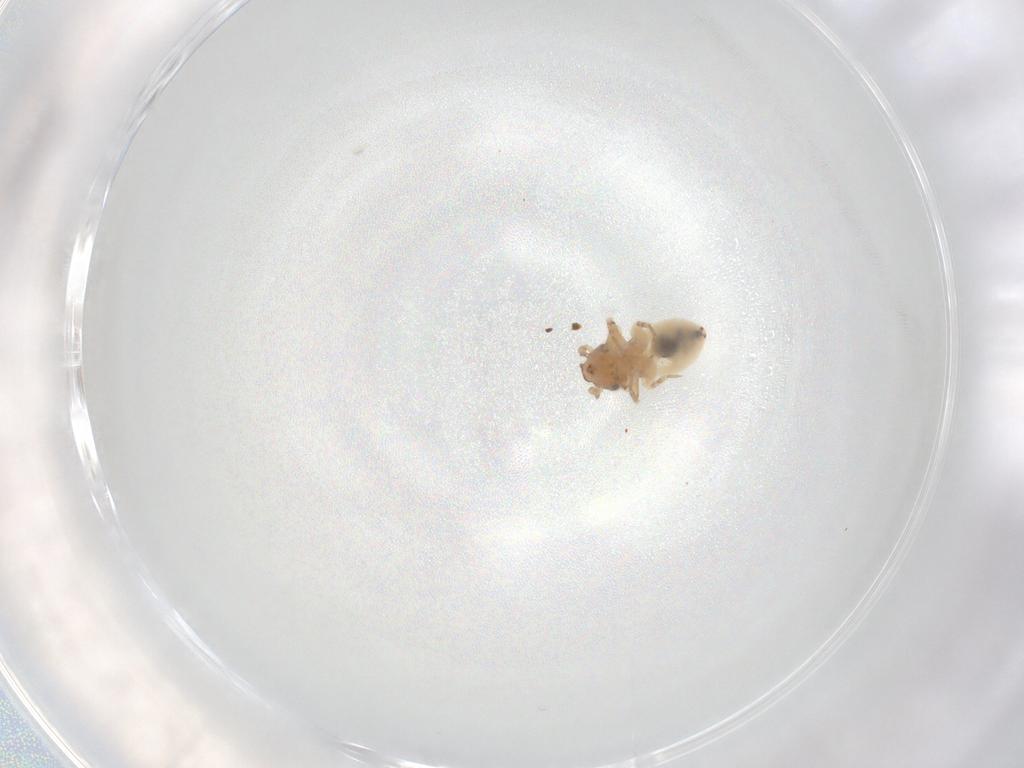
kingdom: Animalia
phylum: Arthropoda
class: Insecta
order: Psocodea
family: Lepidopsocidae
